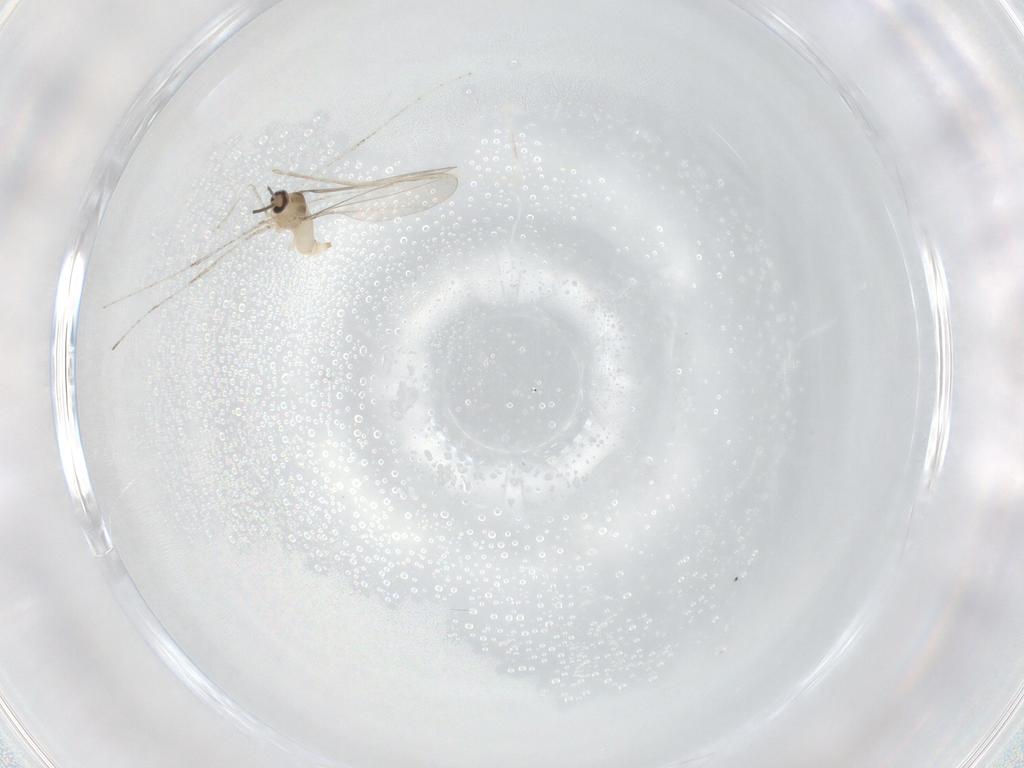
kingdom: Animalia
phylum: Arthropoda
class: Insecta
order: Diptera
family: Cecidomyiidae
